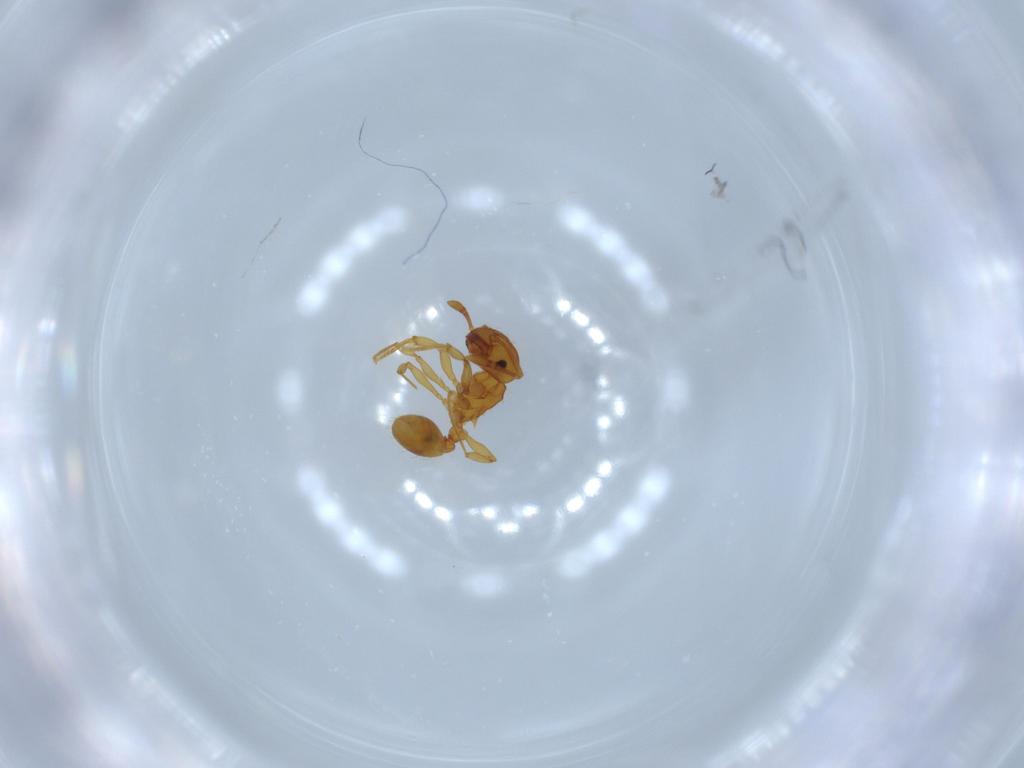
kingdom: Animalia
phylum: Arthropoda
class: Insecta
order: Hymenoptera
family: Formicidae
